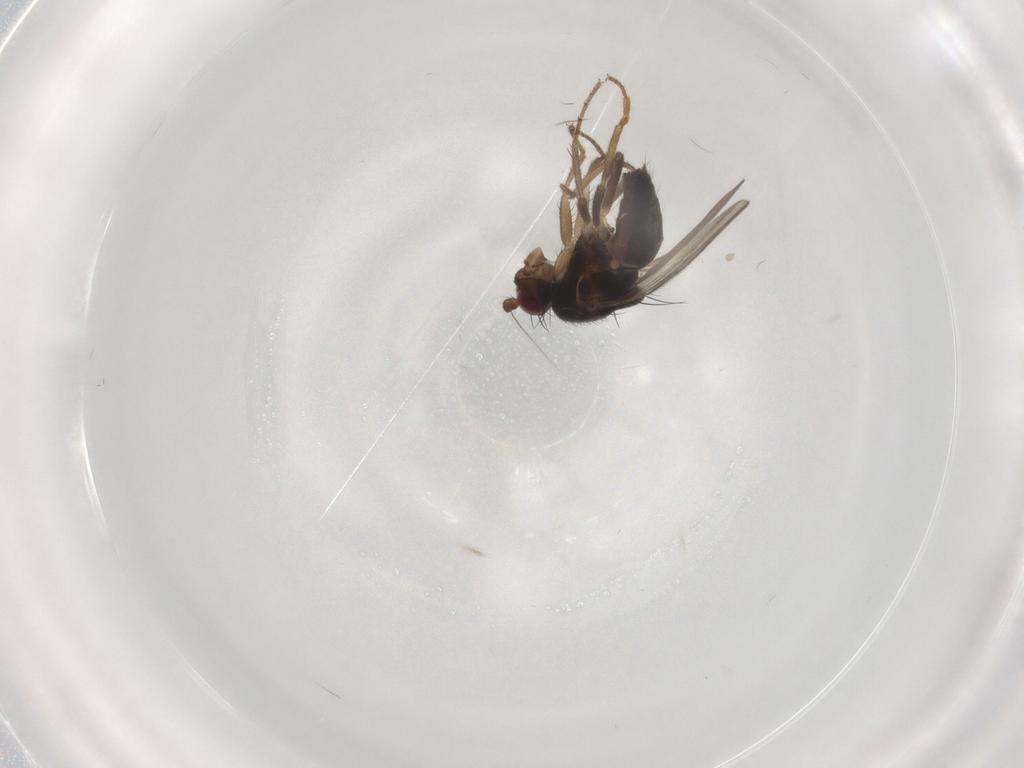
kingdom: Animalia
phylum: Arthropoda
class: Insecta
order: Diptera
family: Sphaeroceridae
